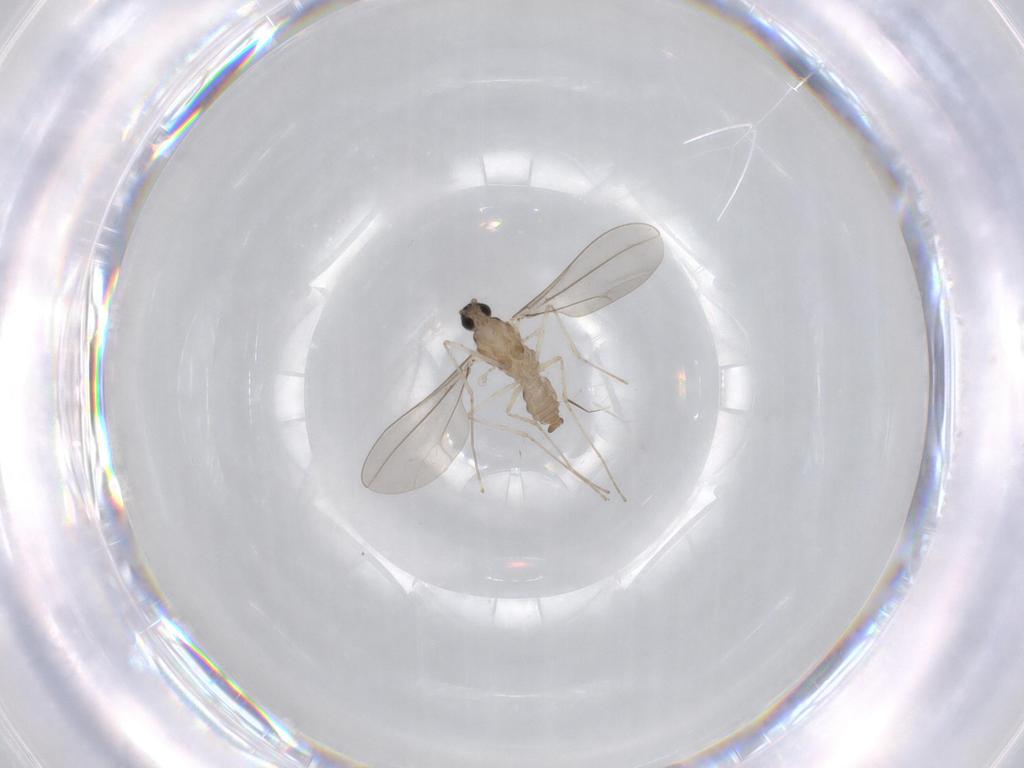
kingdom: Animalia
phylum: Arthropoda
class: Insecta
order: Diptera
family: Cecidomyiidae
